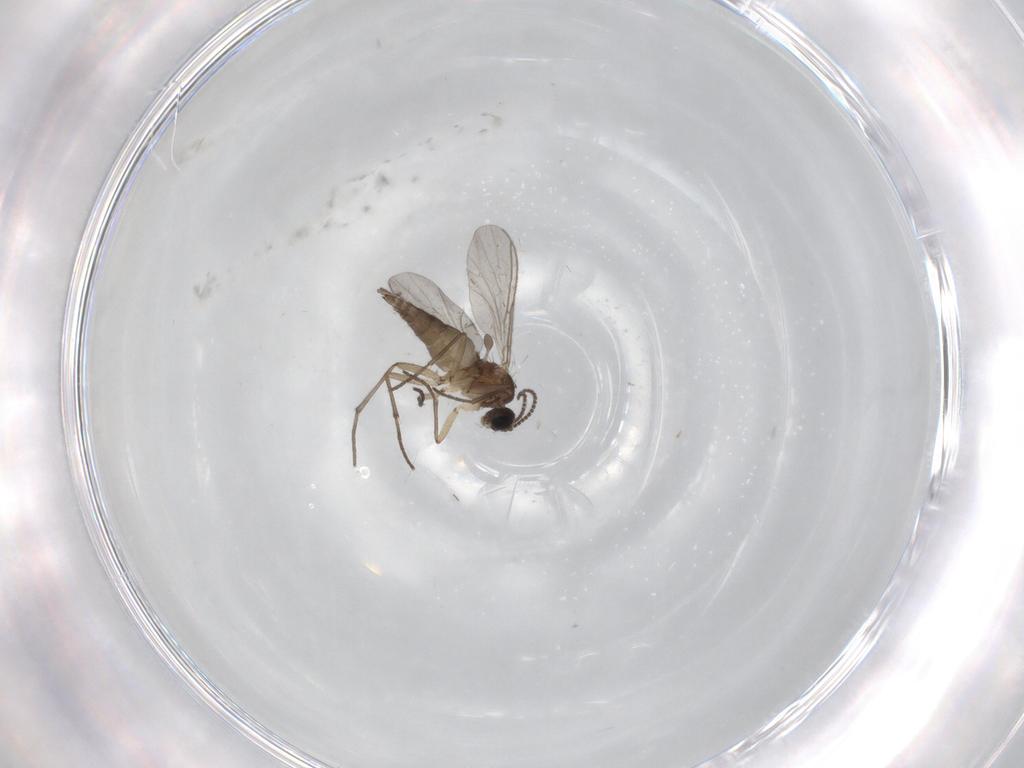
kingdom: Animalia
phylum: Arthropoda
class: Insecta
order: Diptera
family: Sciaridae
